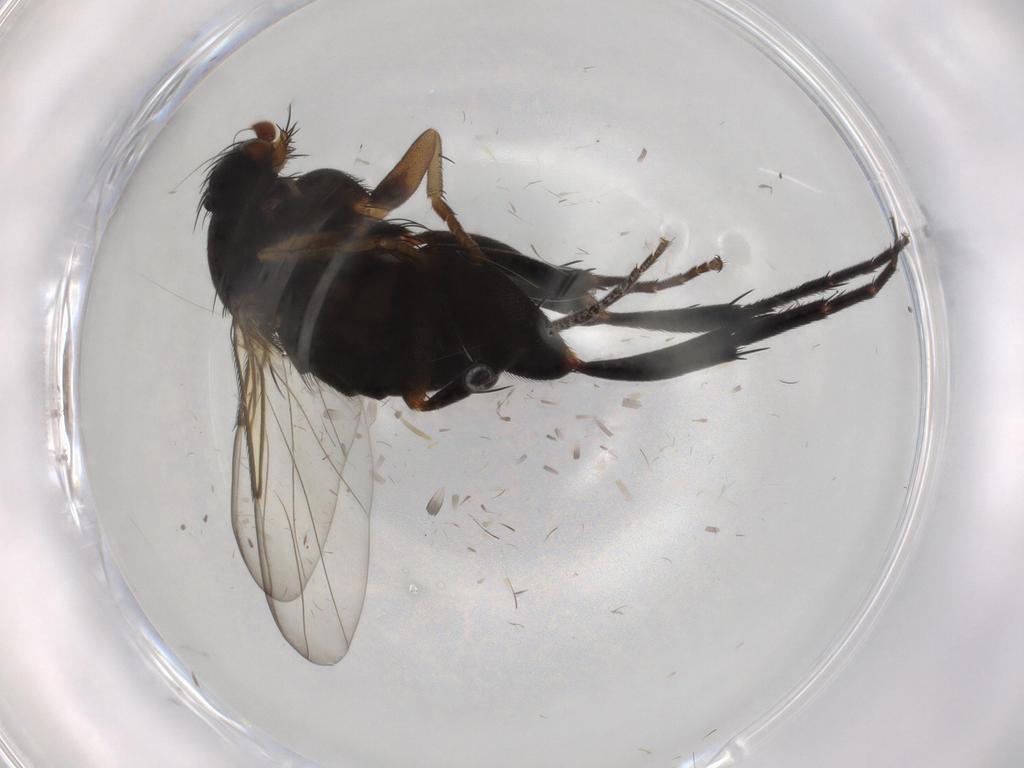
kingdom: Animalia
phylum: Arthropoda
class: Insecta
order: Diptera
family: Phoridae
